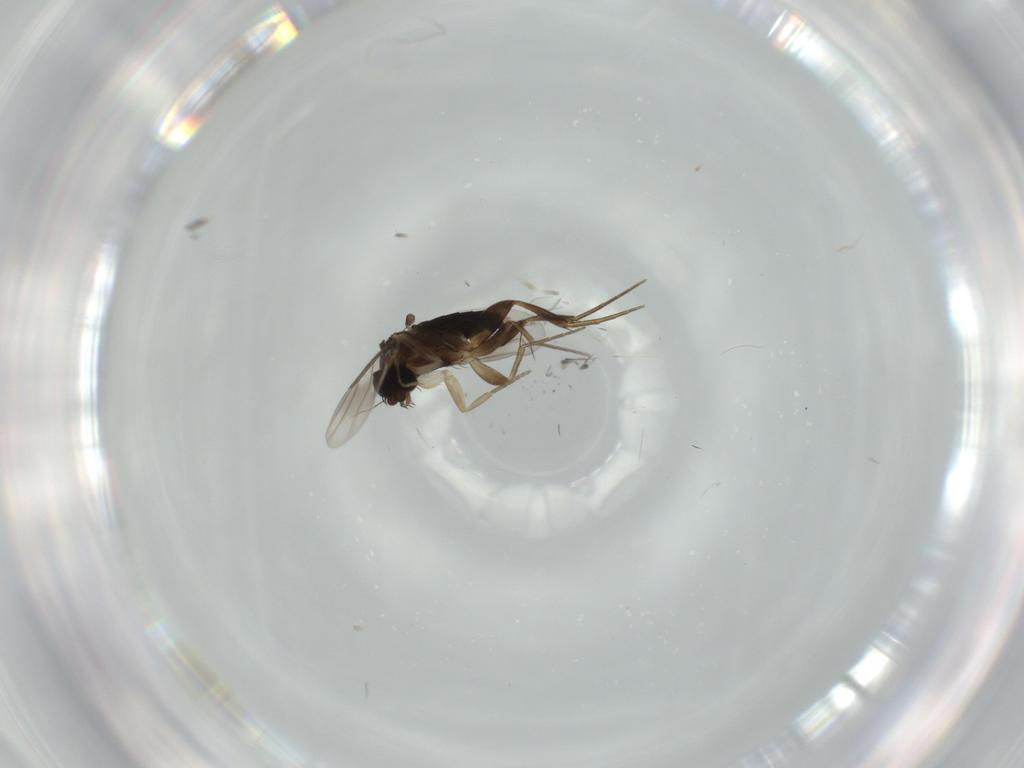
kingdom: Animalia
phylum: Arthropoda
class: Insecta
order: Diptera
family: Phoridae
